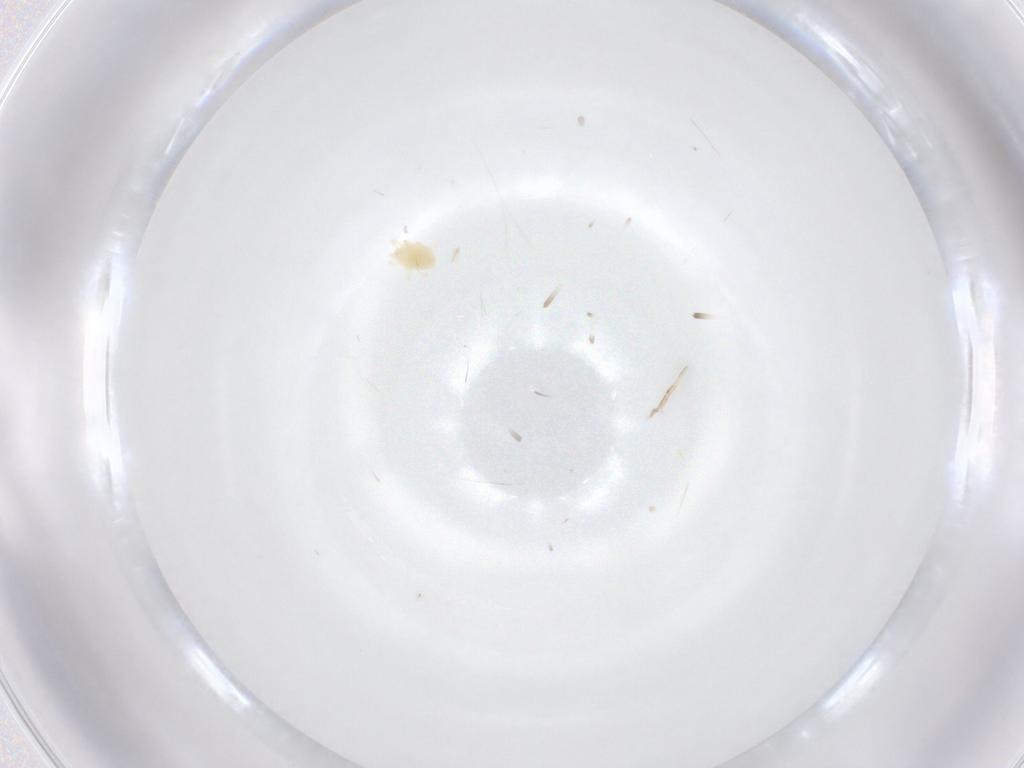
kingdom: Animalia
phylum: Arthropoda
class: Arachnida
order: Trombidiformes
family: Tetranychidae
